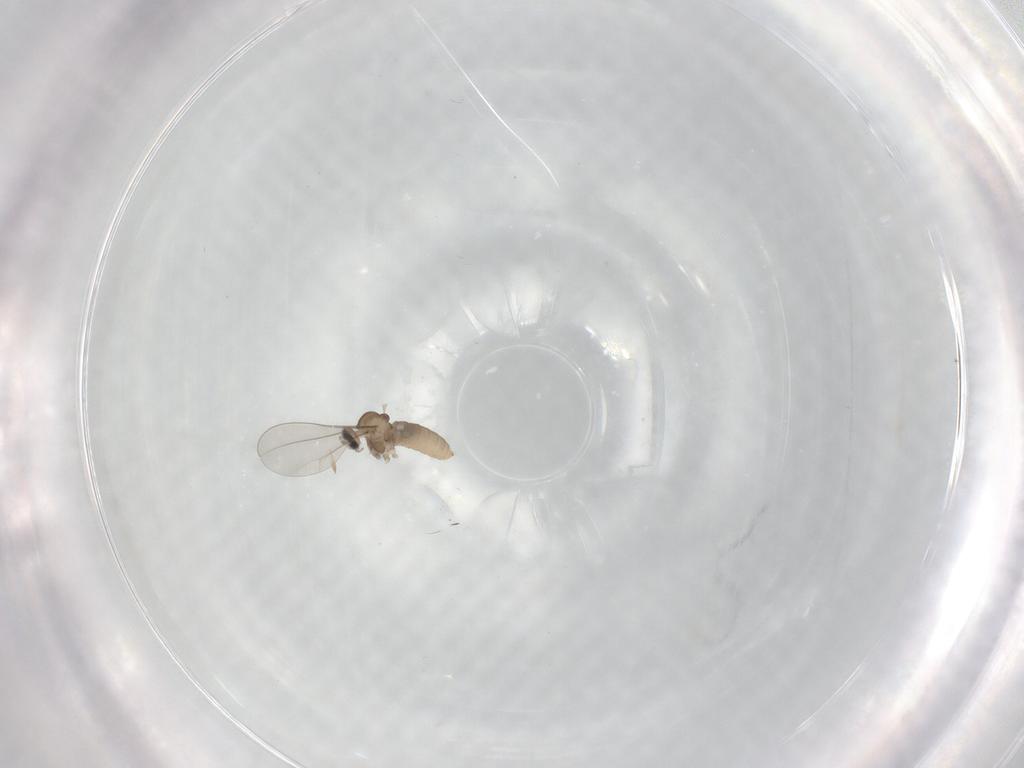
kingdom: Animalia
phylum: Arthropoda
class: Insecta
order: Diptera
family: Cecidomyiidae
